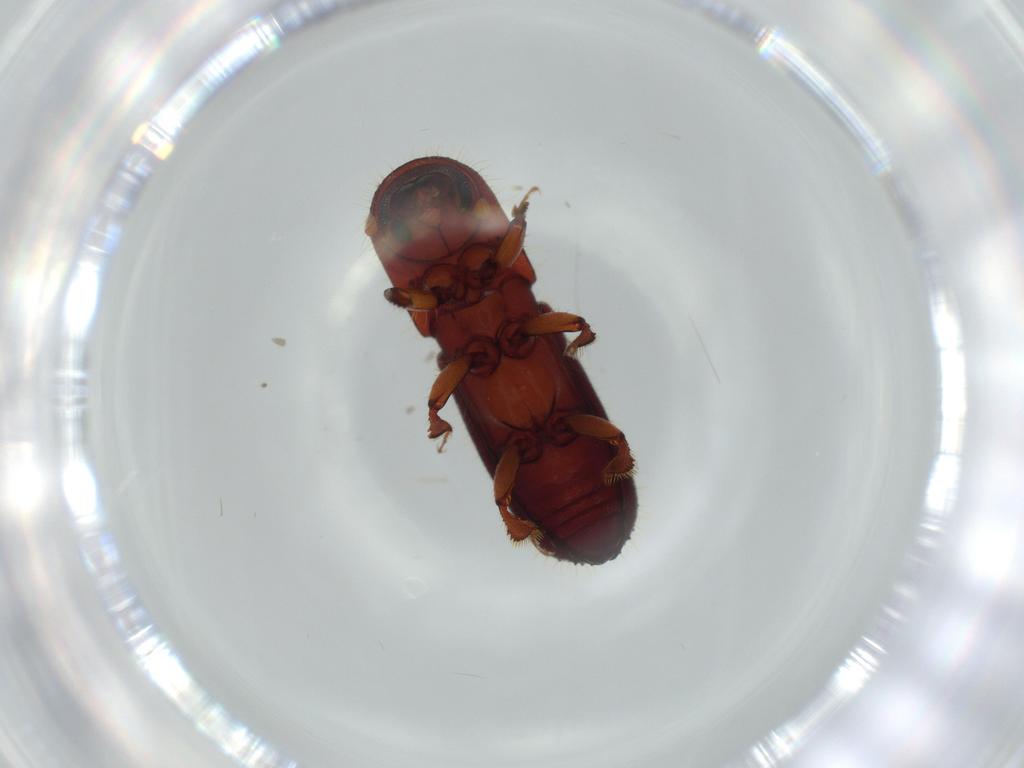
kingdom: Animalia
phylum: Arthropoda
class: Insecta
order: Coleoptera
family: Curculionidae
